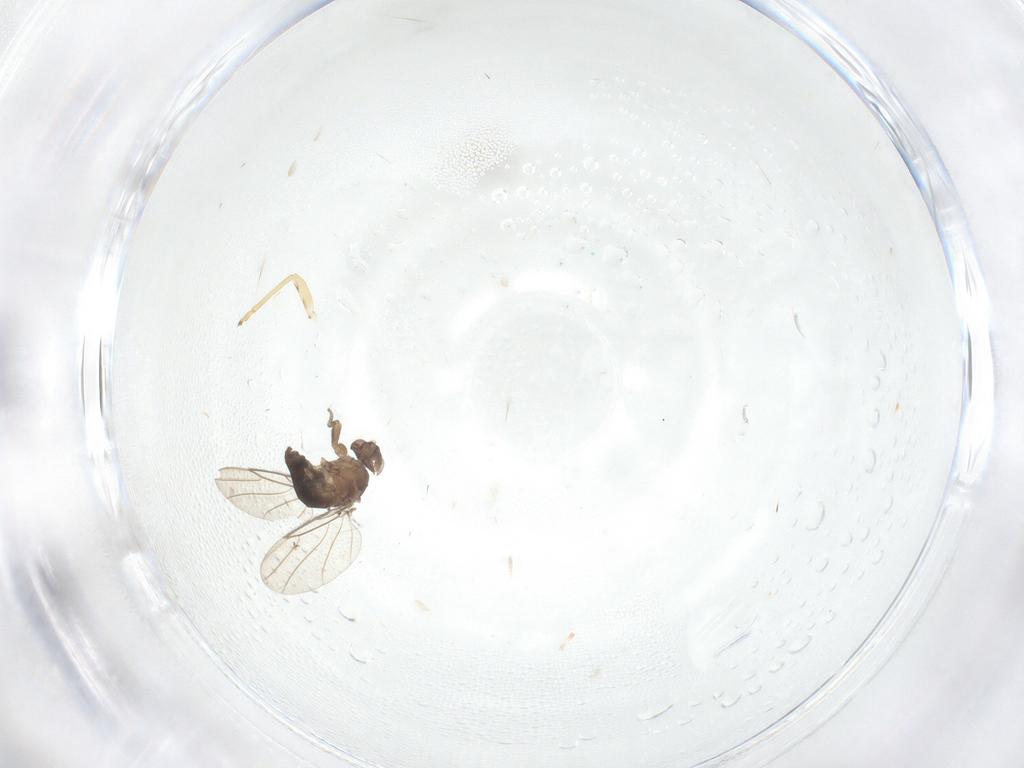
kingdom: Animalia
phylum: Arthropoda
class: Insecta
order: Diptera
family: Phoridae
